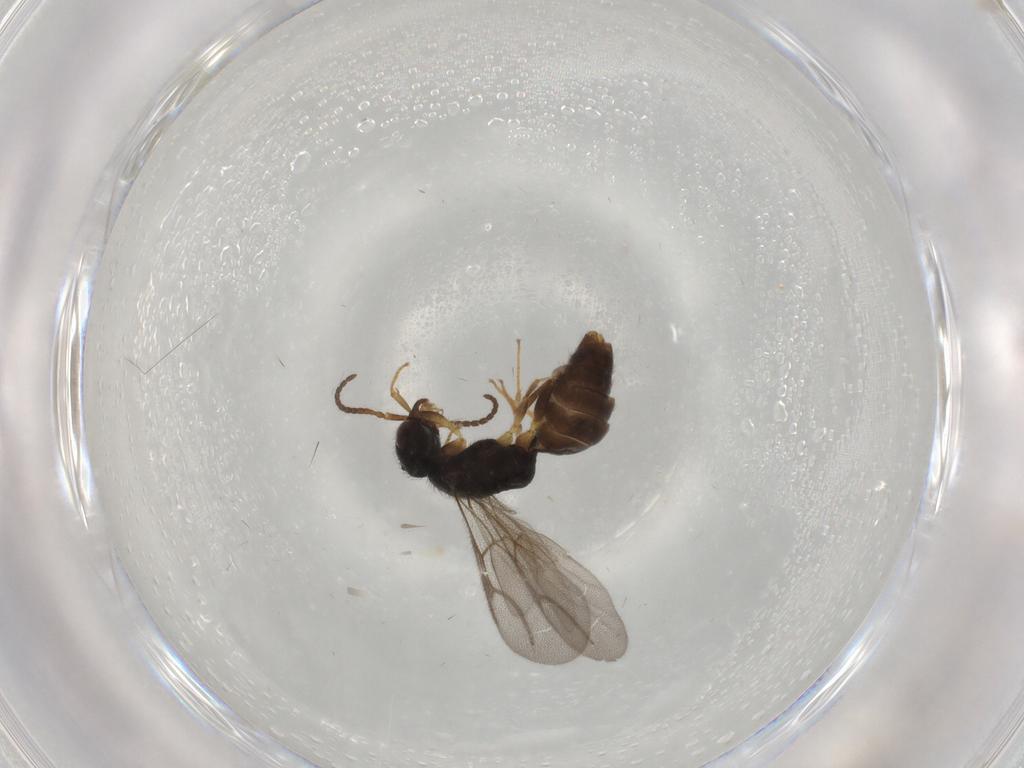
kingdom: Animalia
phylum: Arthropoda
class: Insecta
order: Hymenoptera
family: Bethylidae
